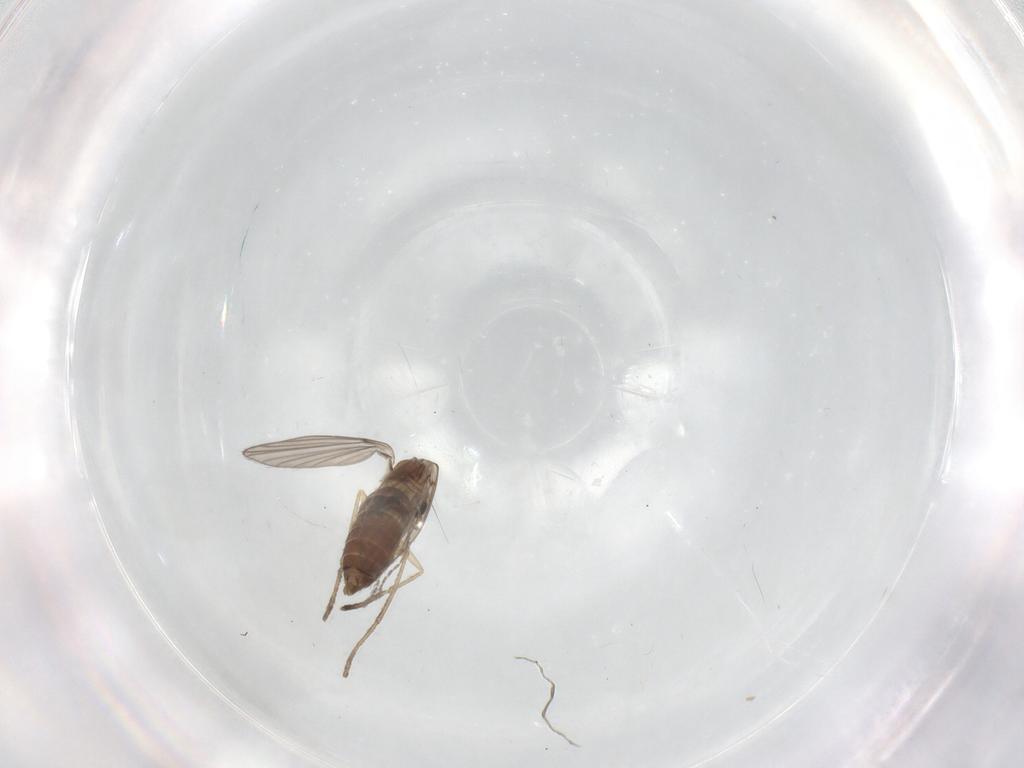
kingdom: Animalia
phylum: Arthropoda
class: Insecta
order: Diptera
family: Psychodidae
